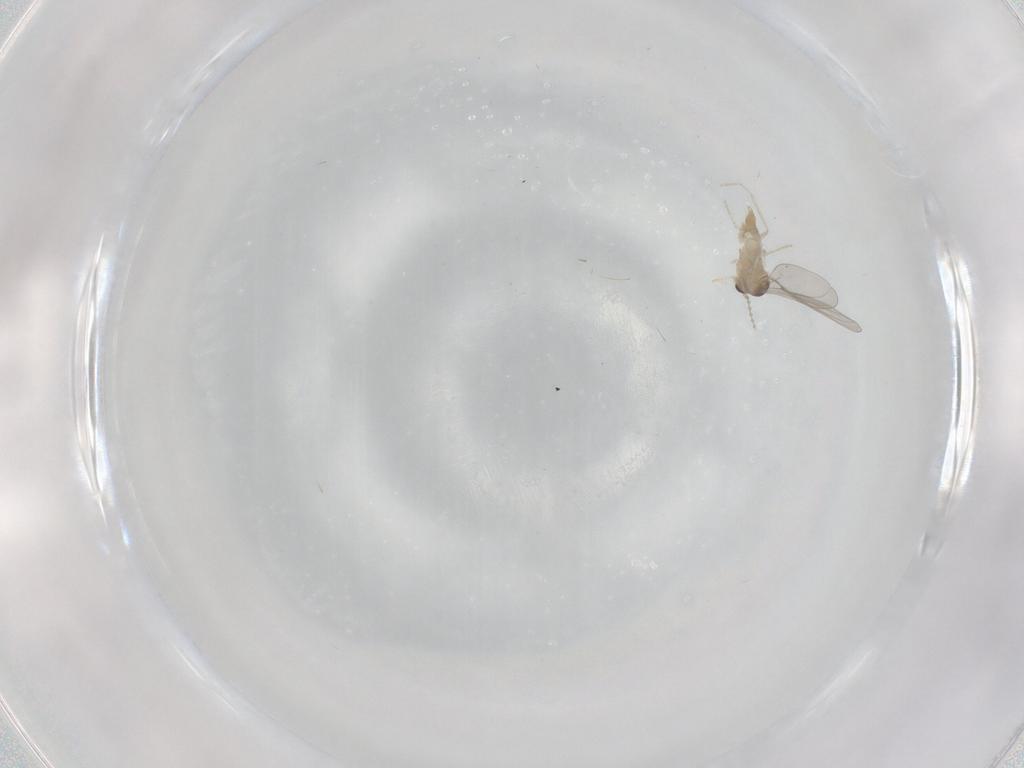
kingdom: Animalia
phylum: Arthropoda
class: Insecta
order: Diptera
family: Cecidomyiidae
